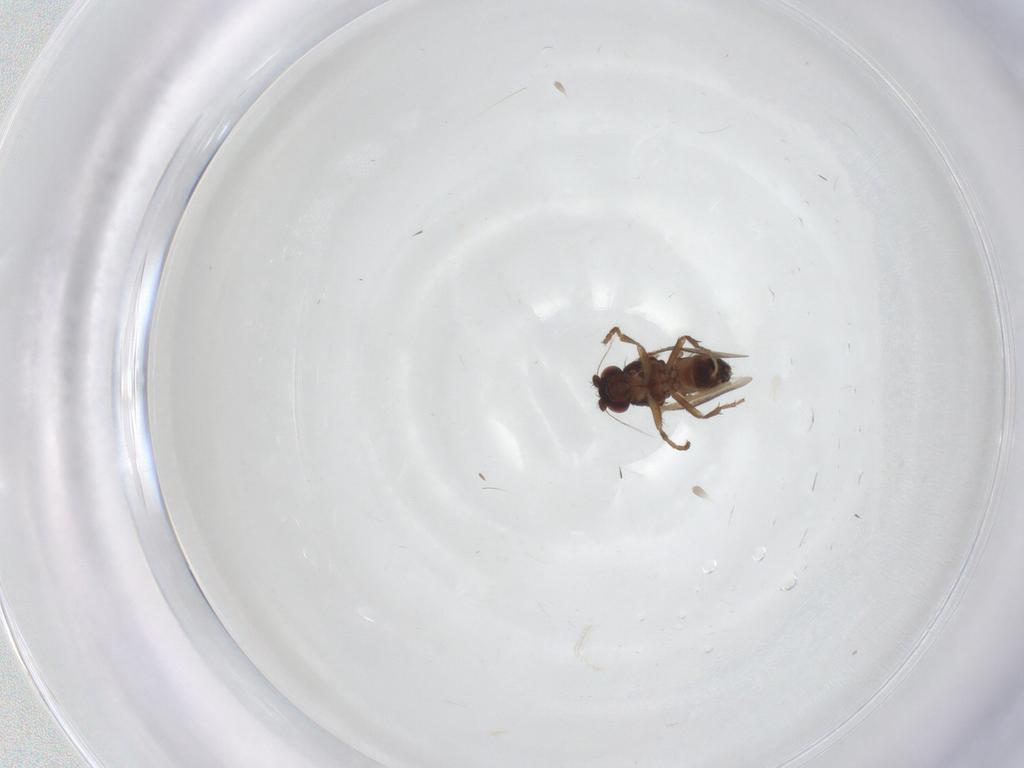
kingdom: Animalia
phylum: Arthropoda
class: Insecta
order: Diptera
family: Sphaeroceridae
